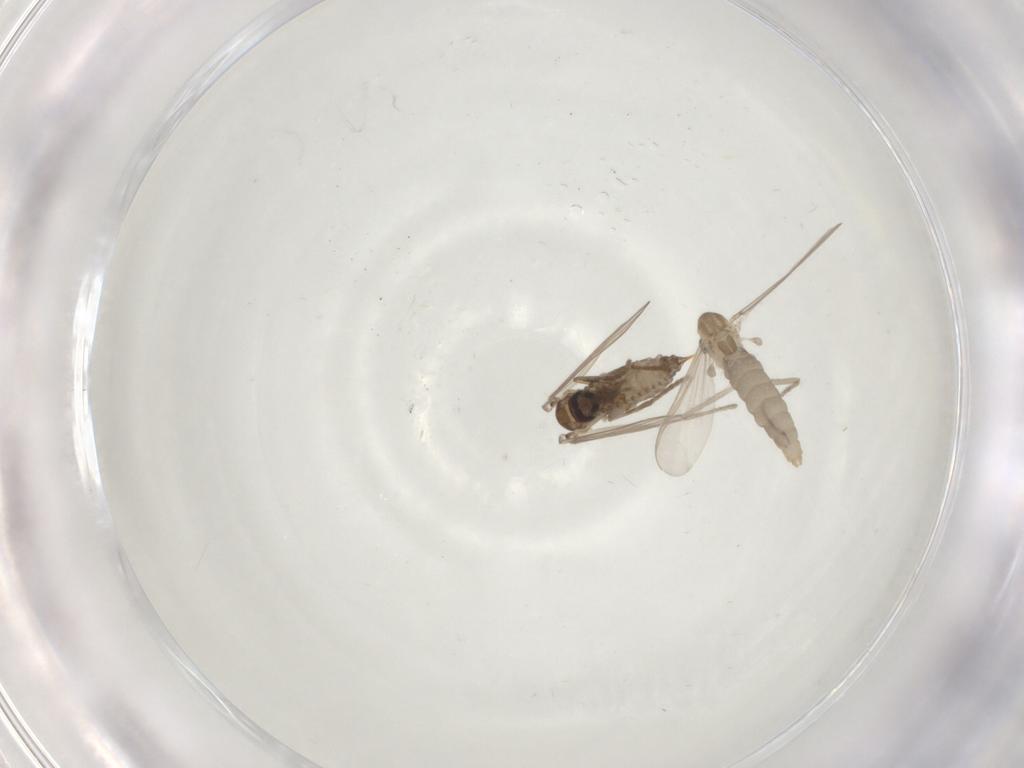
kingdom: Animalia
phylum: Arthropoda
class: Insecta
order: Diptera
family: Chironomidae
